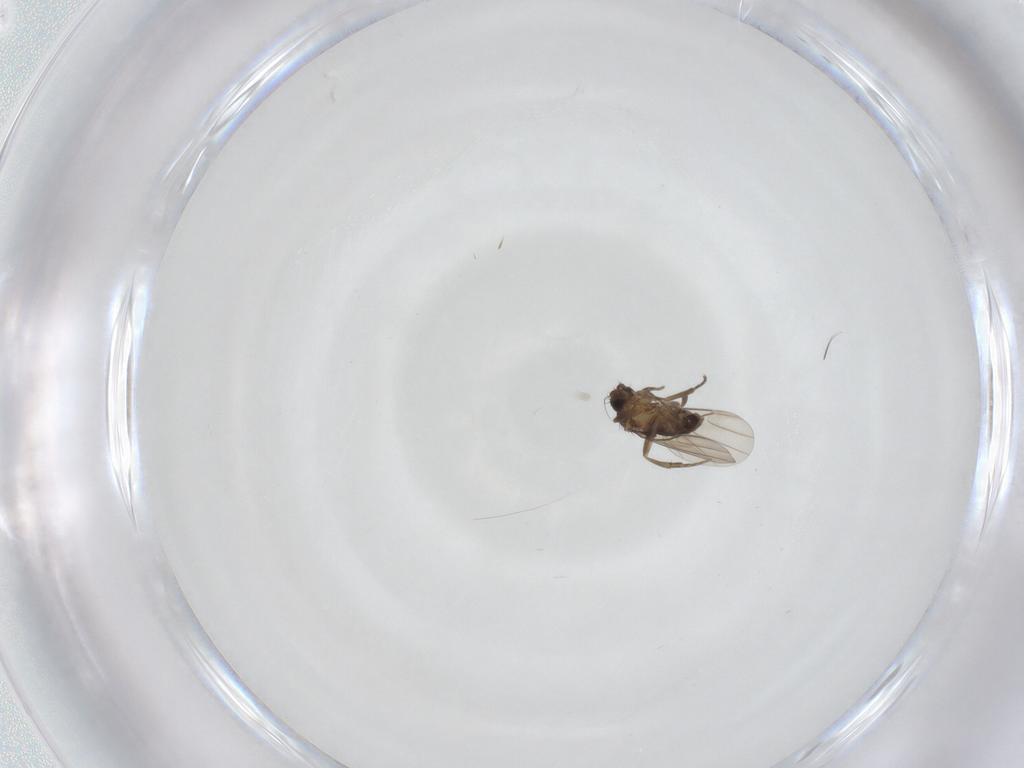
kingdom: Animalia
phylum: Arthropoda
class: Insecta
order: Diptera
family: Phoridae
